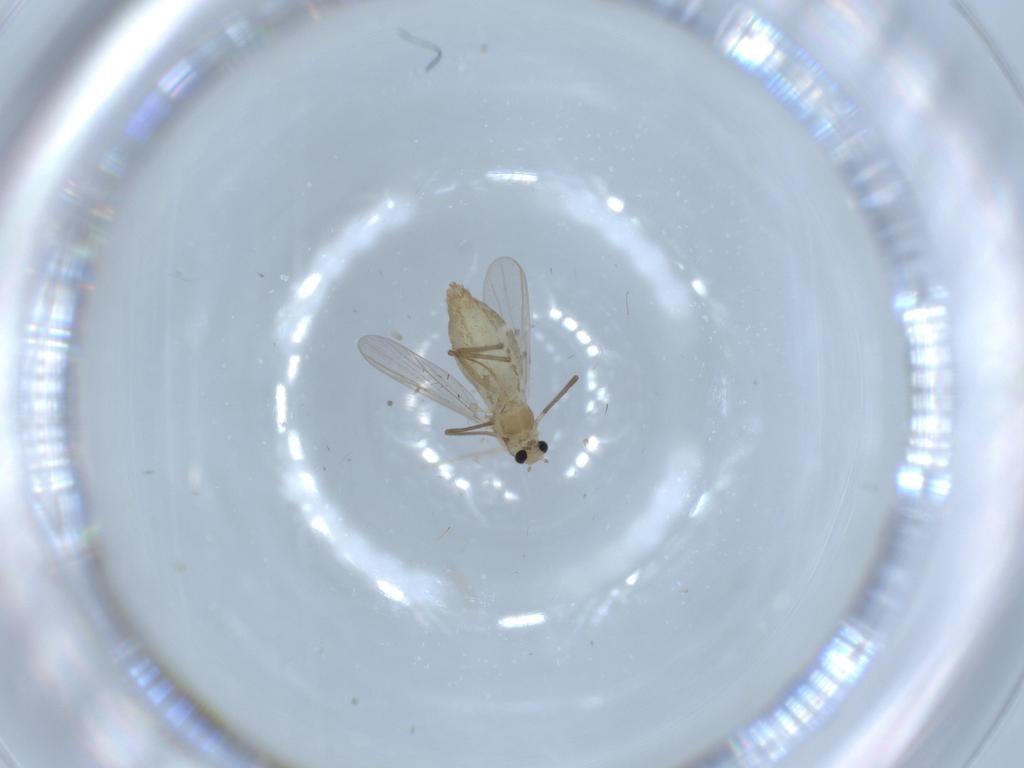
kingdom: Animalia
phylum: Arthropoda
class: Insecta
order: Diptera
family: Chironomidae
